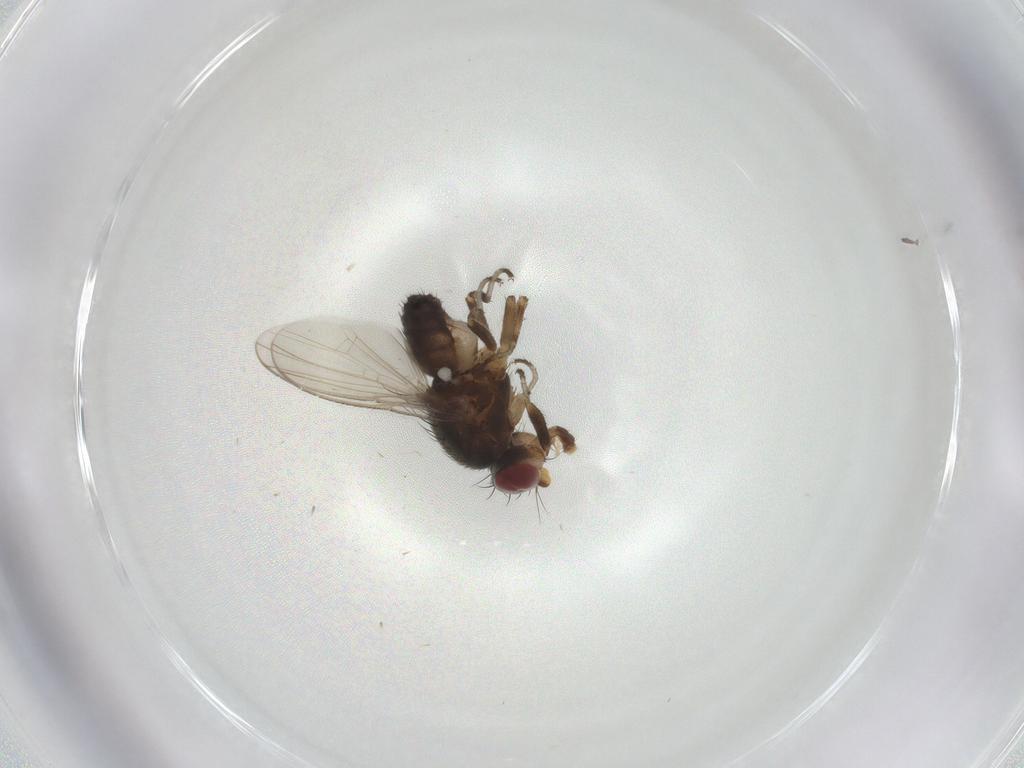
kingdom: Animalia
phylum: Arthropoda
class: Insecta
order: Diptera
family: Heleomyzidae
